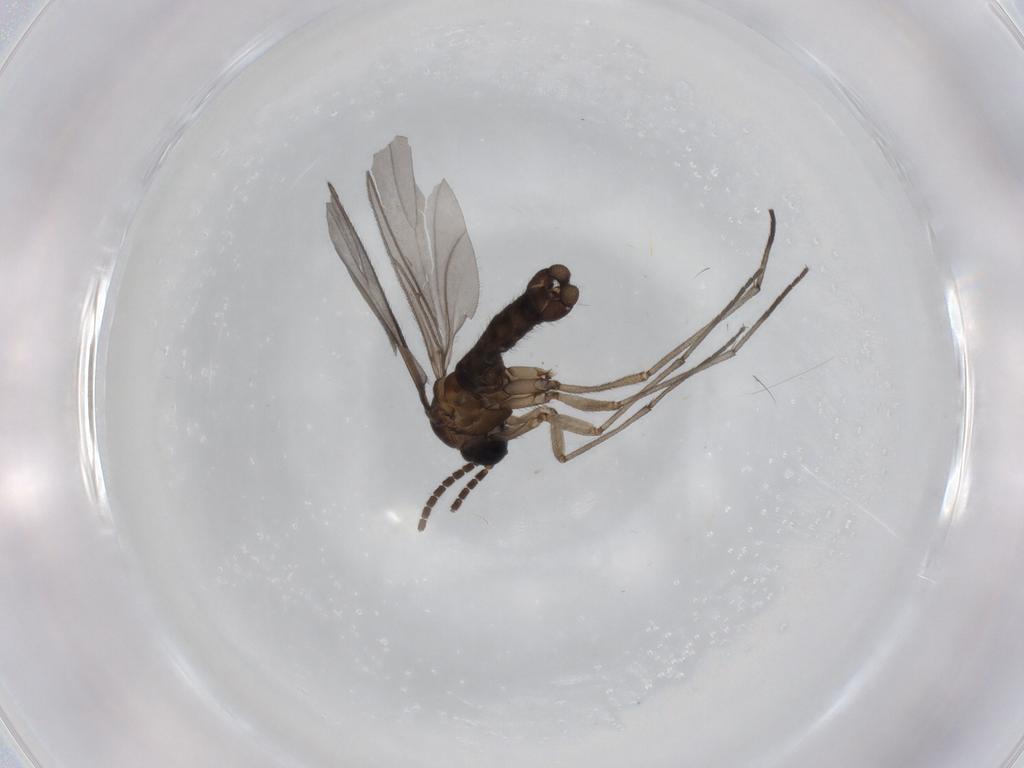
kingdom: Animalia
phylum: Arthropoda
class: Insecta
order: Diptera
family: Sciaridae
